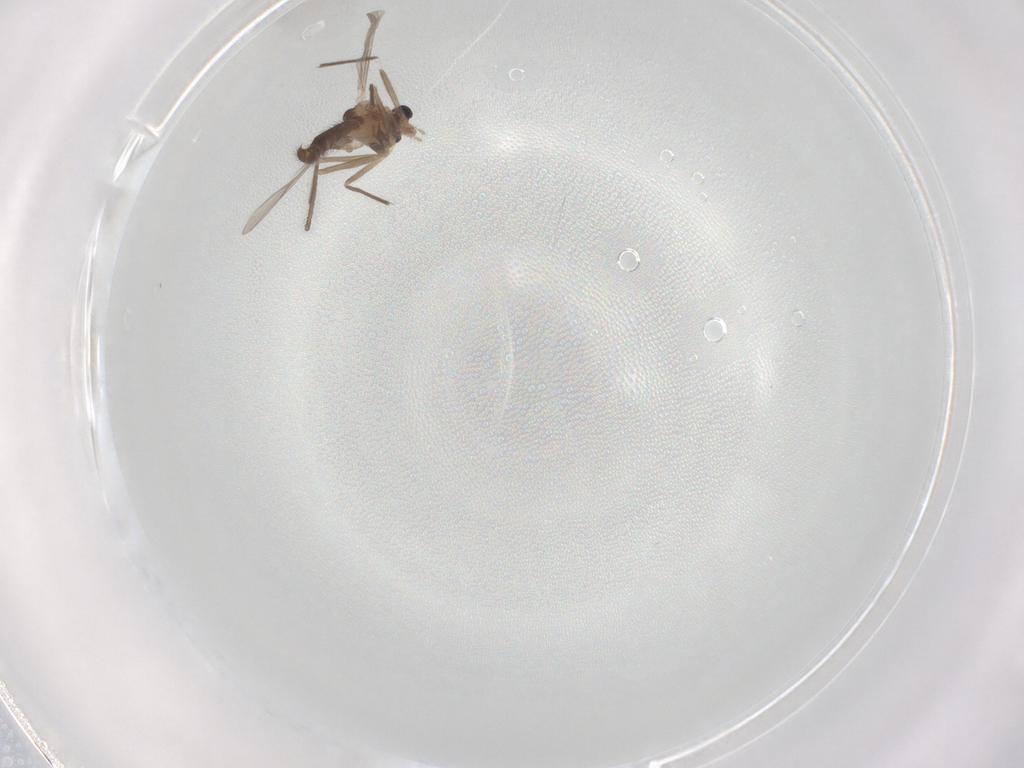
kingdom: Animalia
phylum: Arthropoda
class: Insecta
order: Diptera
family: Chironomidae
